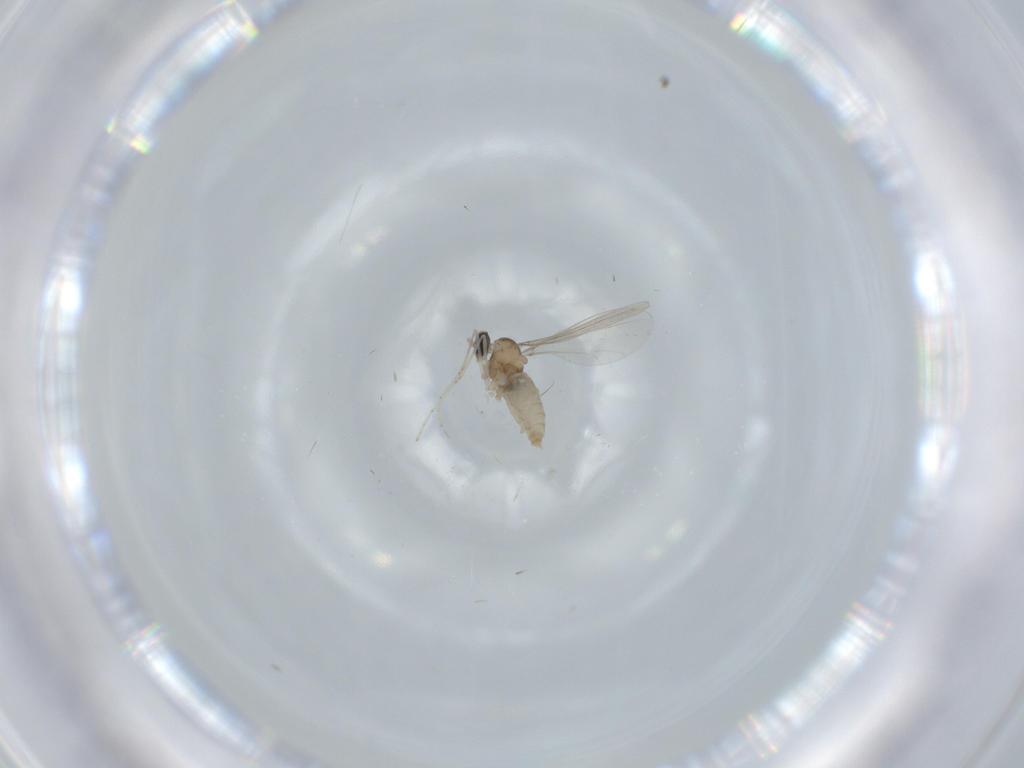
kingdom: Animalia
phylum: Arthropoda
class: Insecta
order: Diptera
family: Cecidomyiidae
